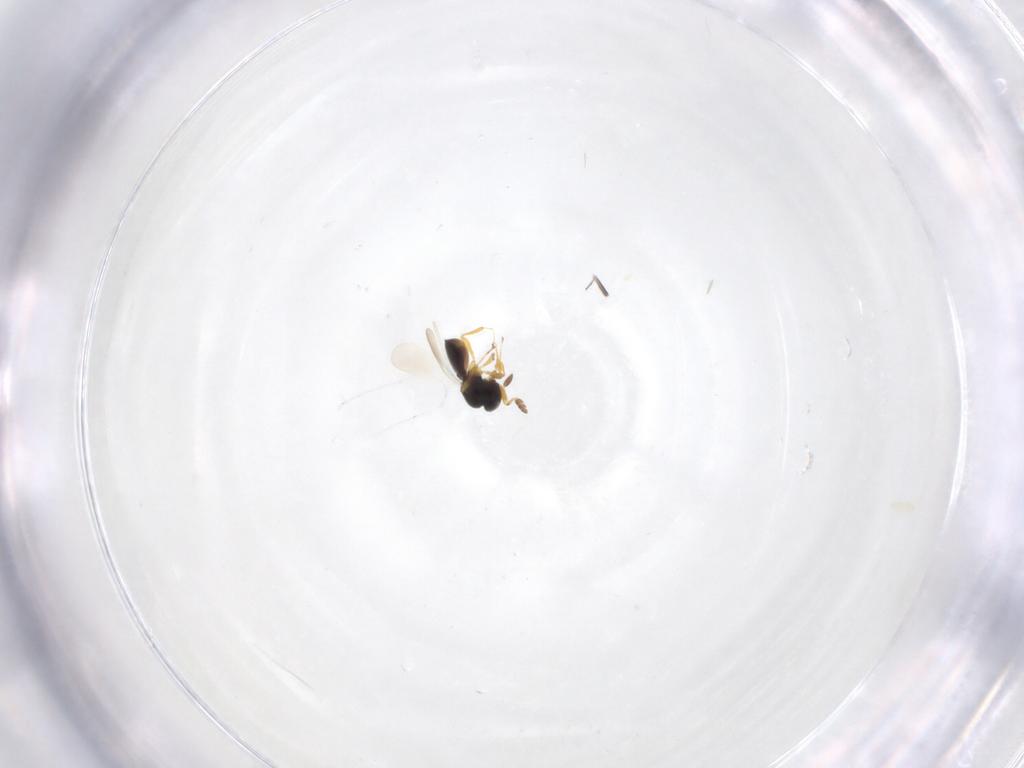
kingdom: Animalia
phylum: Arthropoda
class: Insecta
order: Hymenoptera
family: Platygastridae
